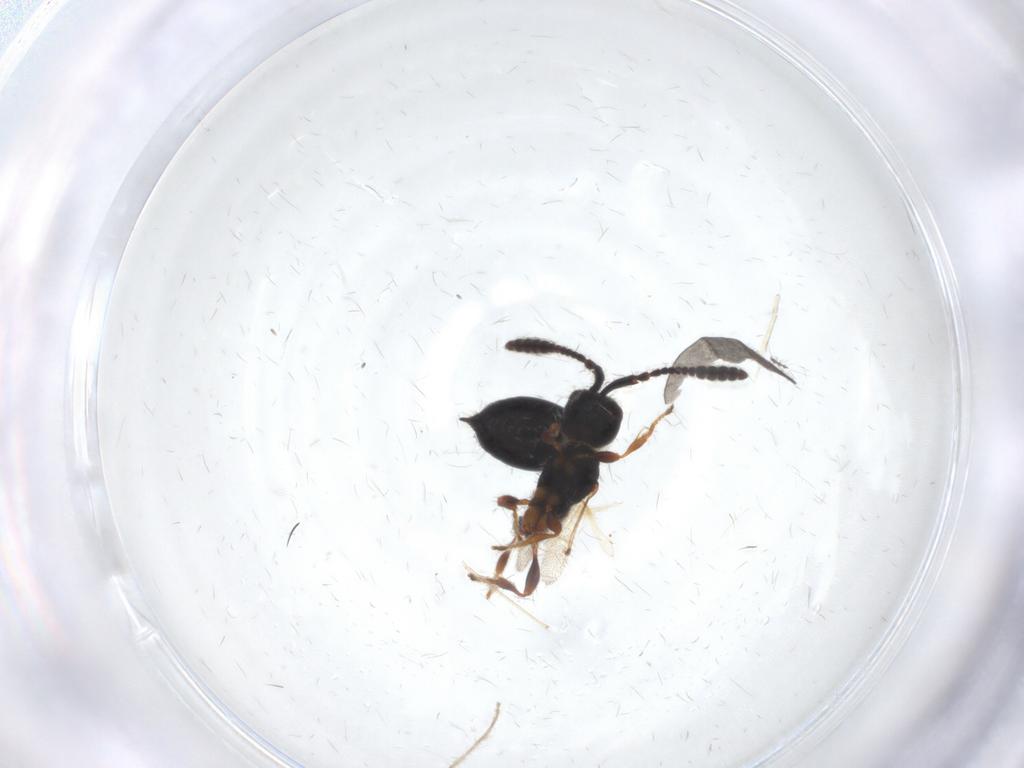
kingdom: Animalia
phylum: Arthropoda
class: Insecta
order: Hymenoptera
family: Diapriidae
